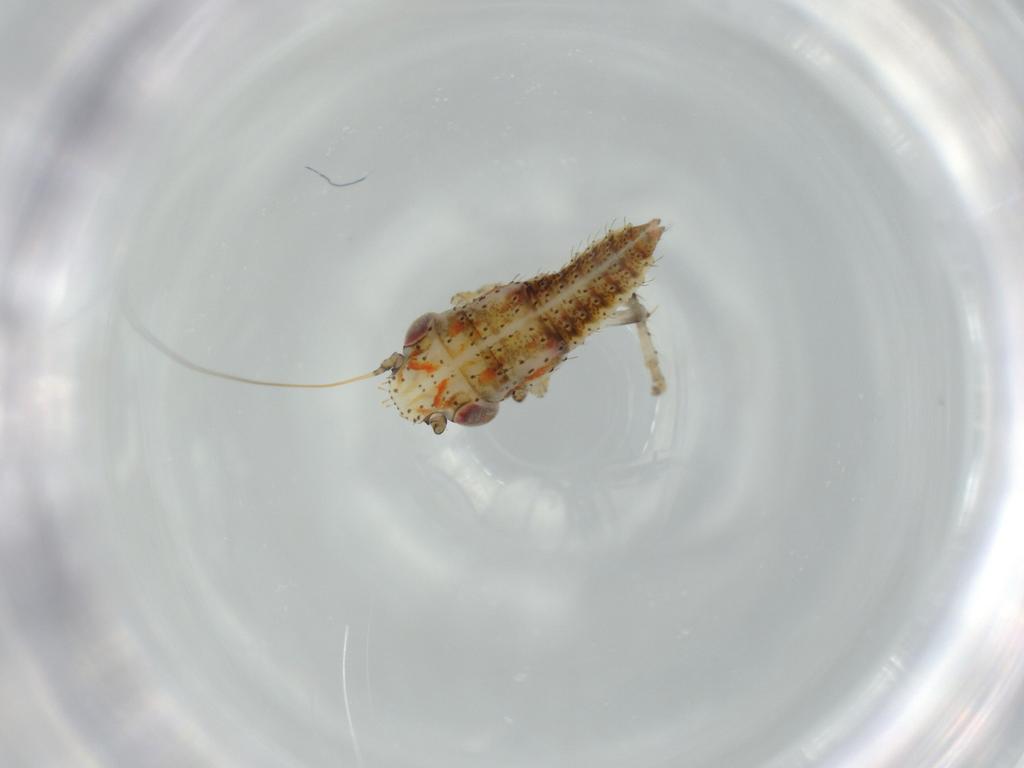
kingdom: Animalia
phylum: Arthropoda
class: Insecta
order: Hemiptera
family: Cicadellidae
